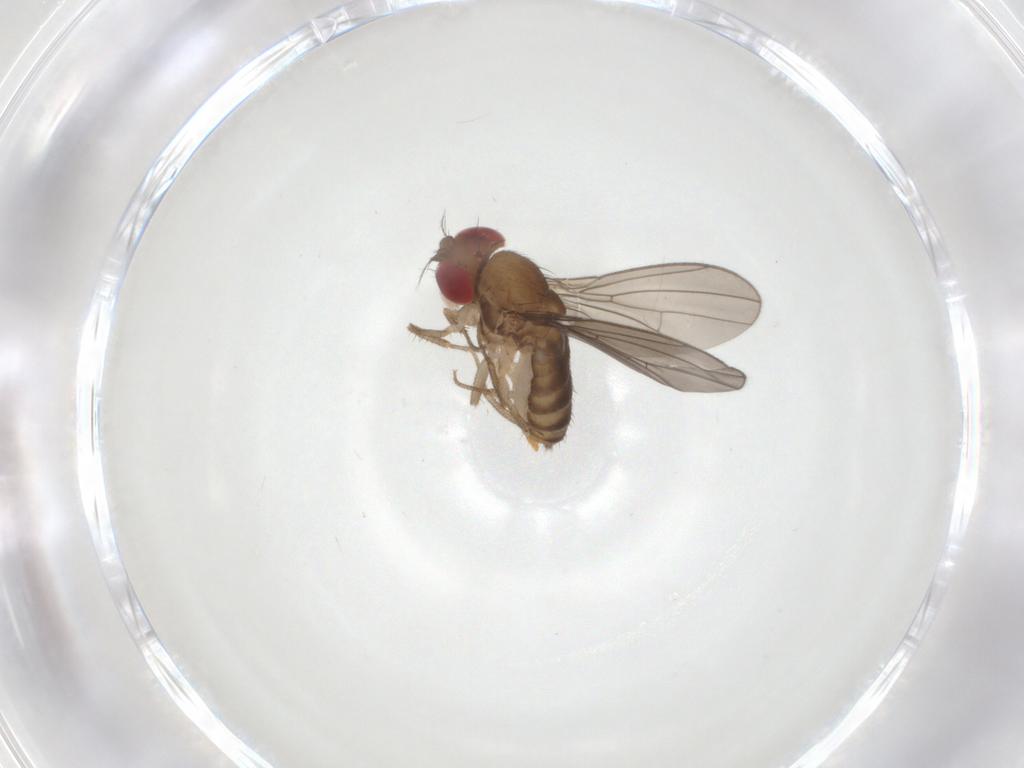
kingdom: Animalia
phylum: Arthropoda
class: Insecta
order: Diptera
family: Drosophilidae
